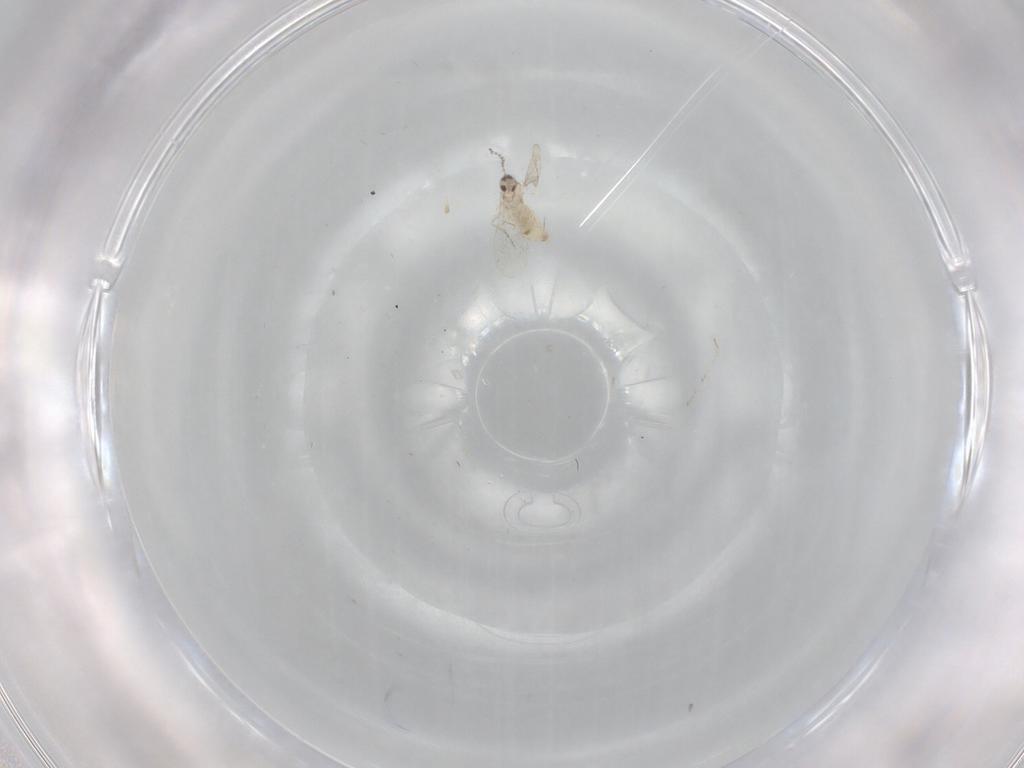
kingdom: Animalia
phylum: Arthropoda
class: Insecta
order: Diptera
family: Cecidomyiidae
